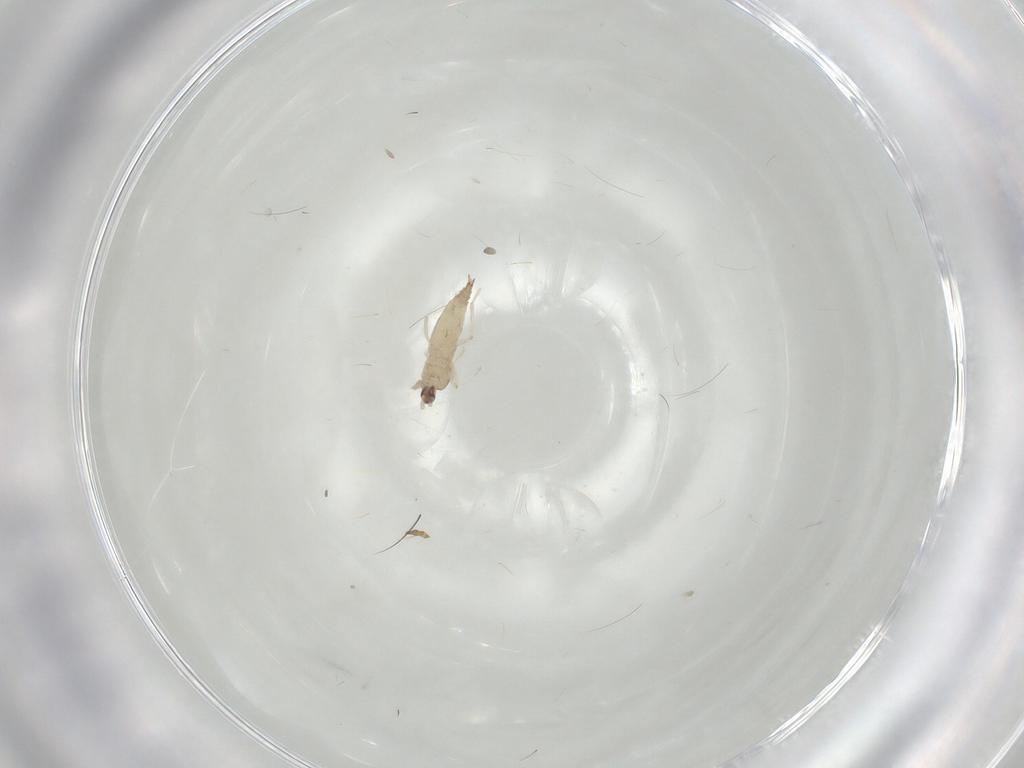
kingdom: Animalia
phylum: Arthropoda
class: Insecta
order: Diptera
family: Cecidomyiidae
